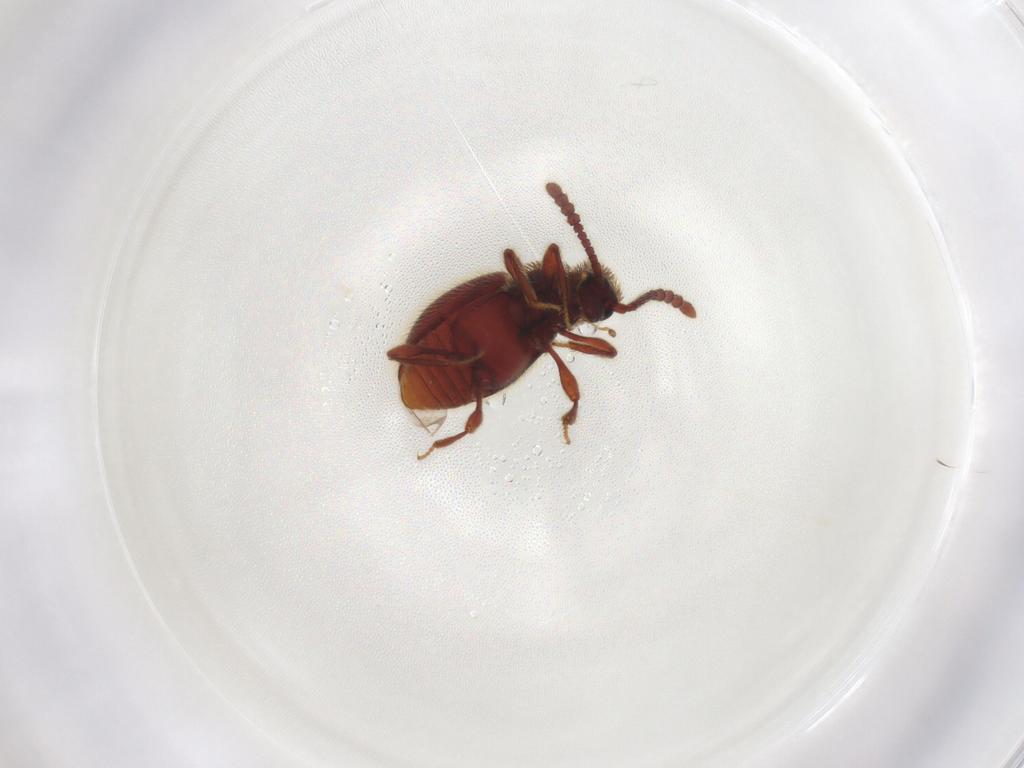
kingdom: Animalia
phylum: Arthropoda
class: Insecta
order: Coleoptera
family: Staphylinidae
